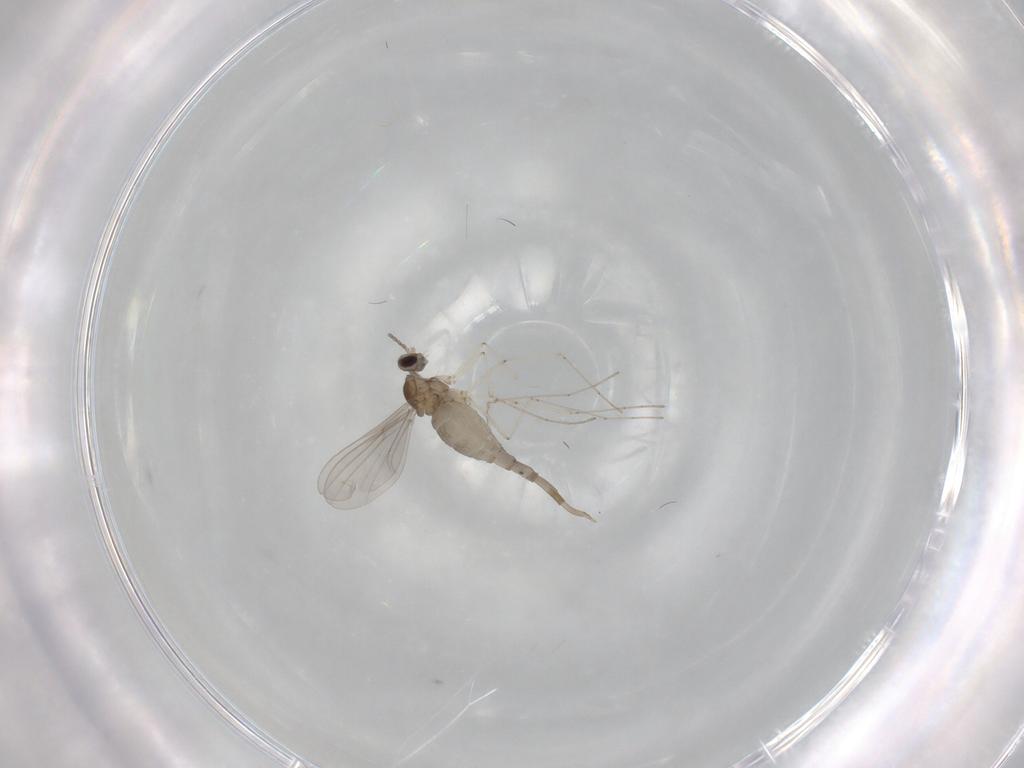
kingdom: Animalia
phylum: Arthropoda
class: Insecta
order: Diptera
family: Cecidomyiidae
